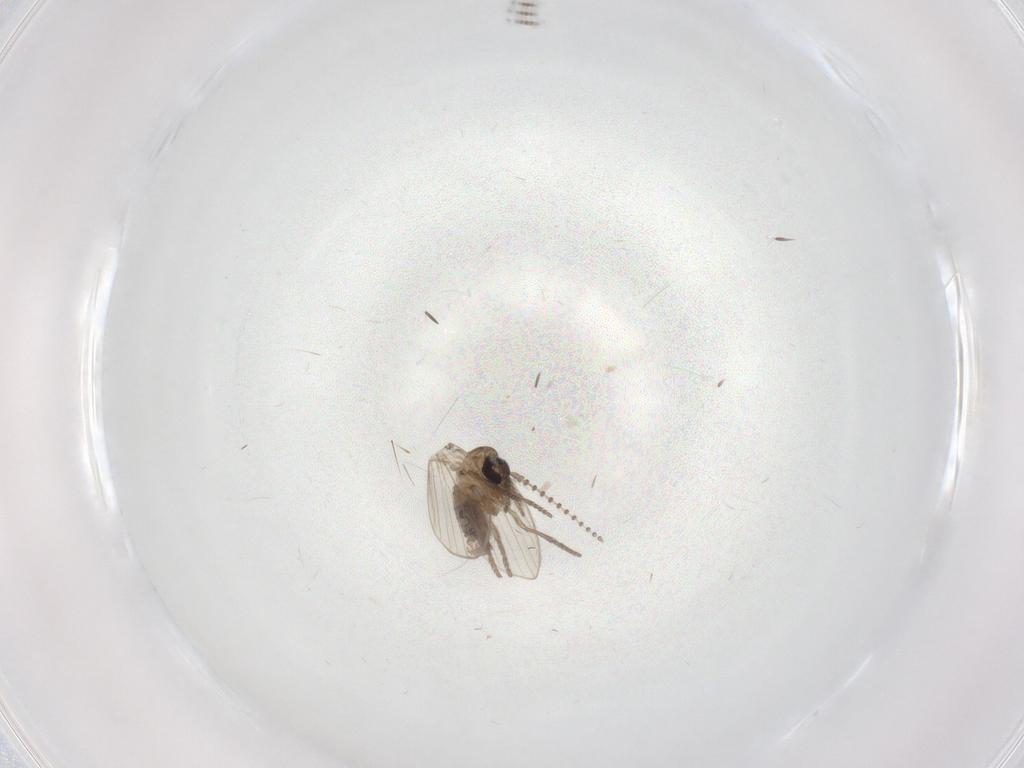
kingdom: Animalia
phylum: Arthropoda
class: Insecta
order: Diptera
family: Psychodidae
